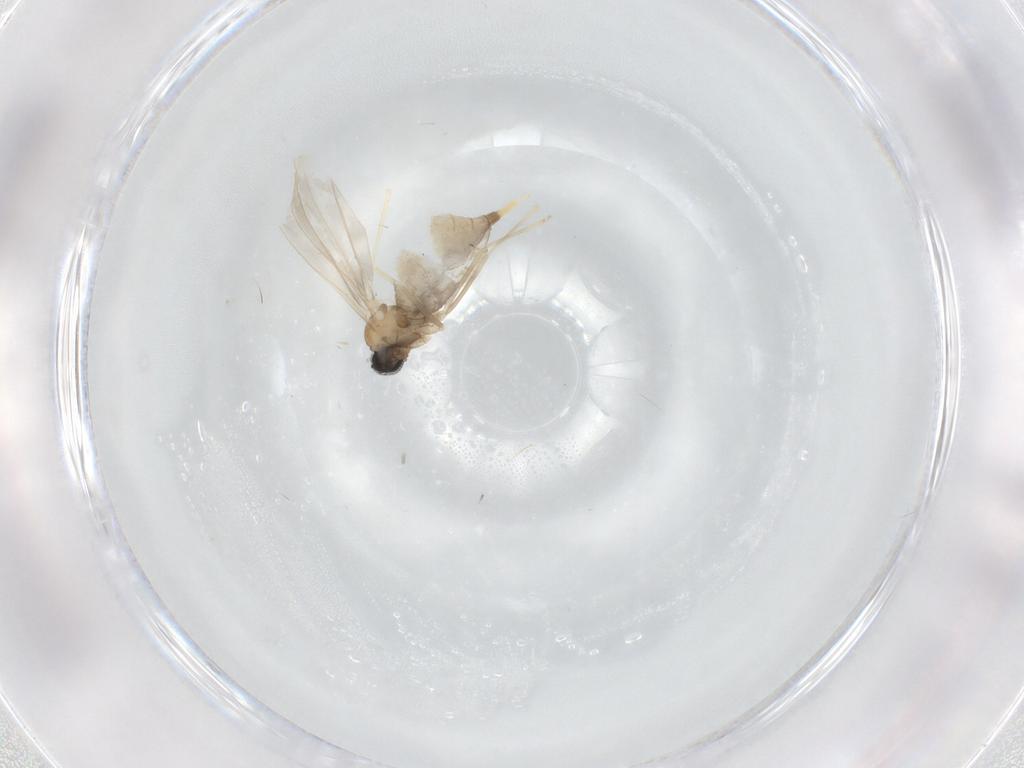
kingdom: Animalia
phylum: Arthropoda
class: Insecta
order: Diptera
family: Cecidomyiidae
